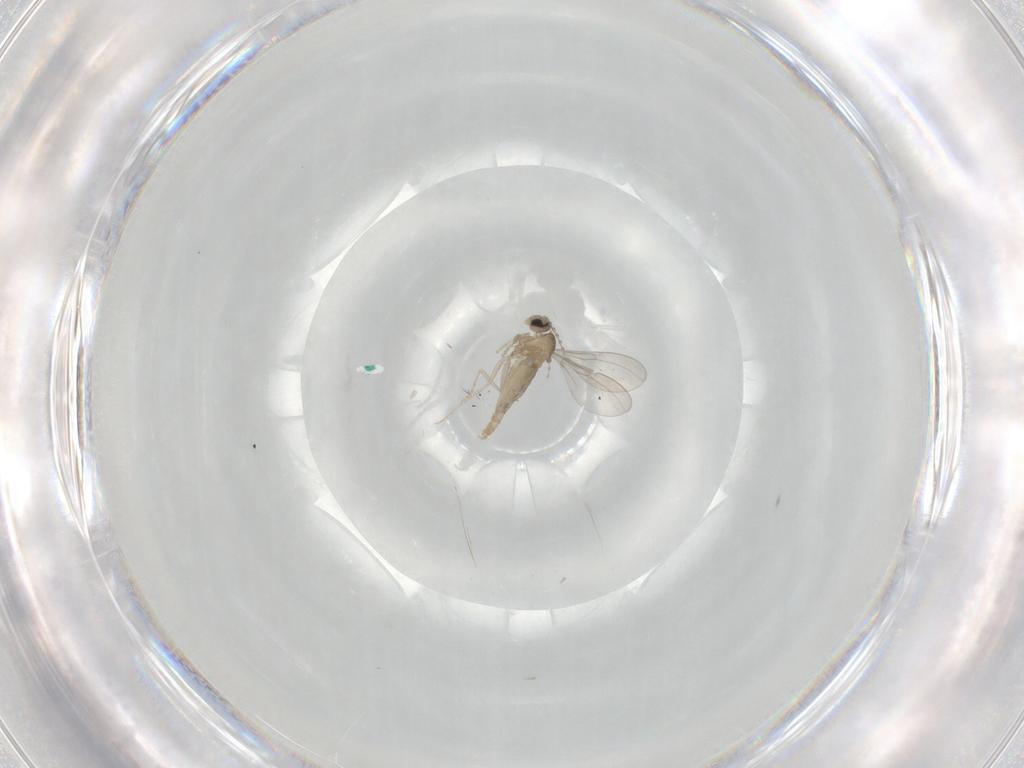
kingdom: Animalia
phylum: Arthropoda
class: Insecta
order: Diptera
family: Cecidomyiidae
